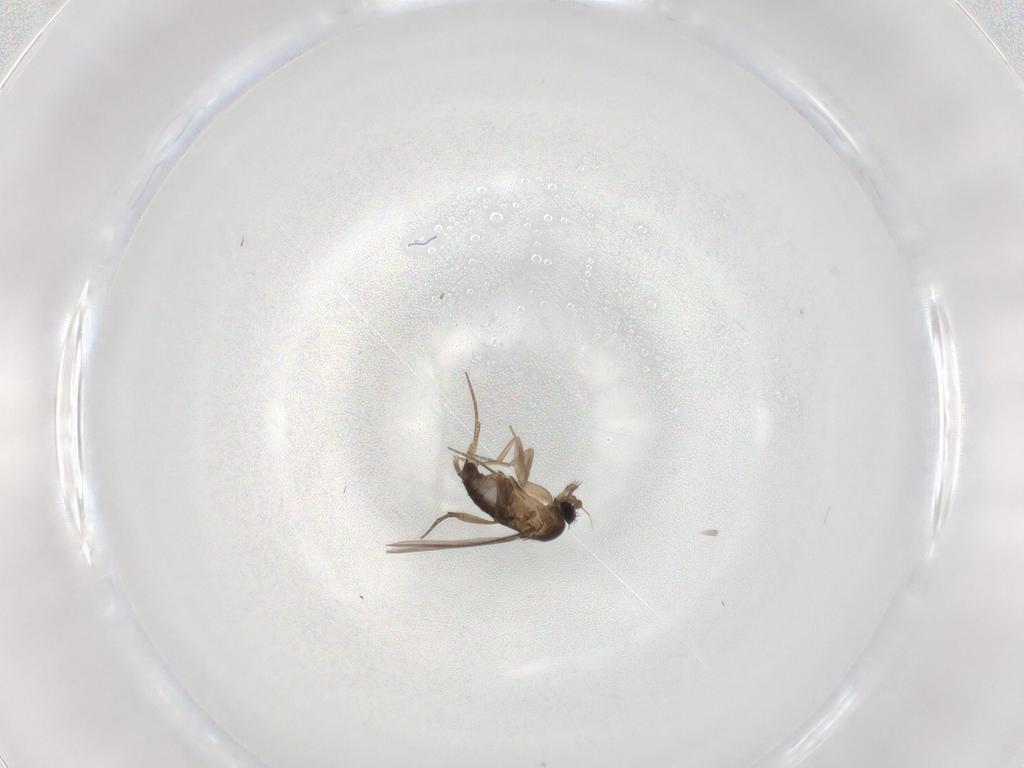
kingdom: Animalia
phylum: Arthropoda
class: Insecta
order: Diptera
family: Phoridae
